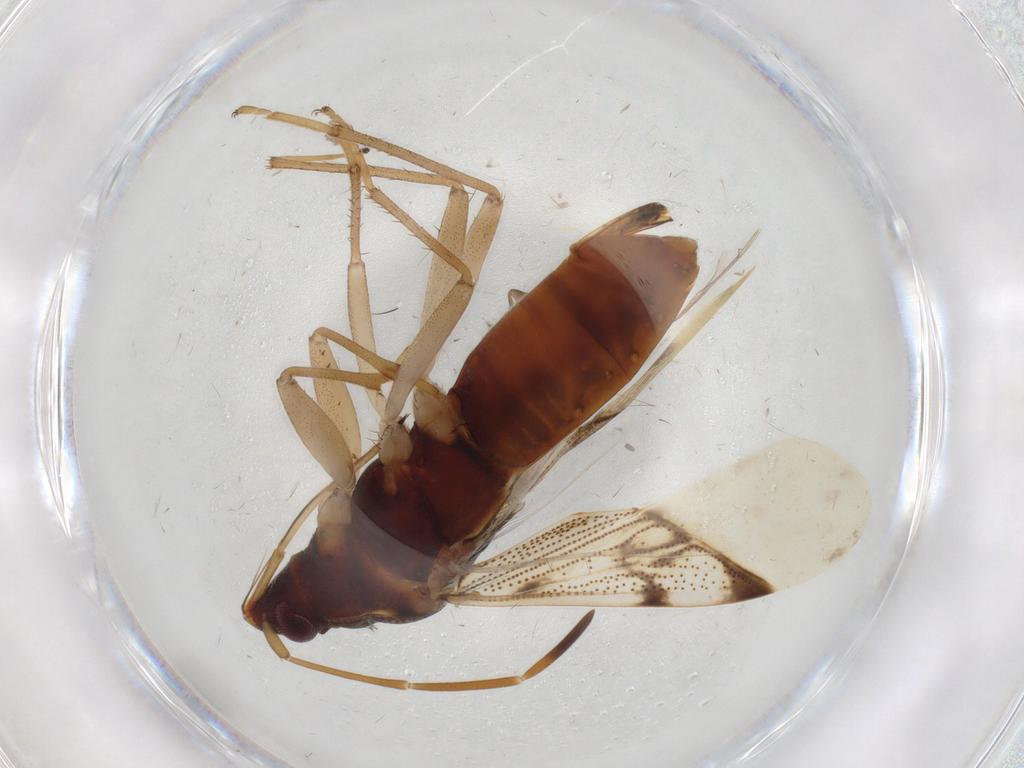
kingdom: Animalia
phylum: Arthropoda
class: Insecta
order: Hemiptera
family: Rhyparochromidae
